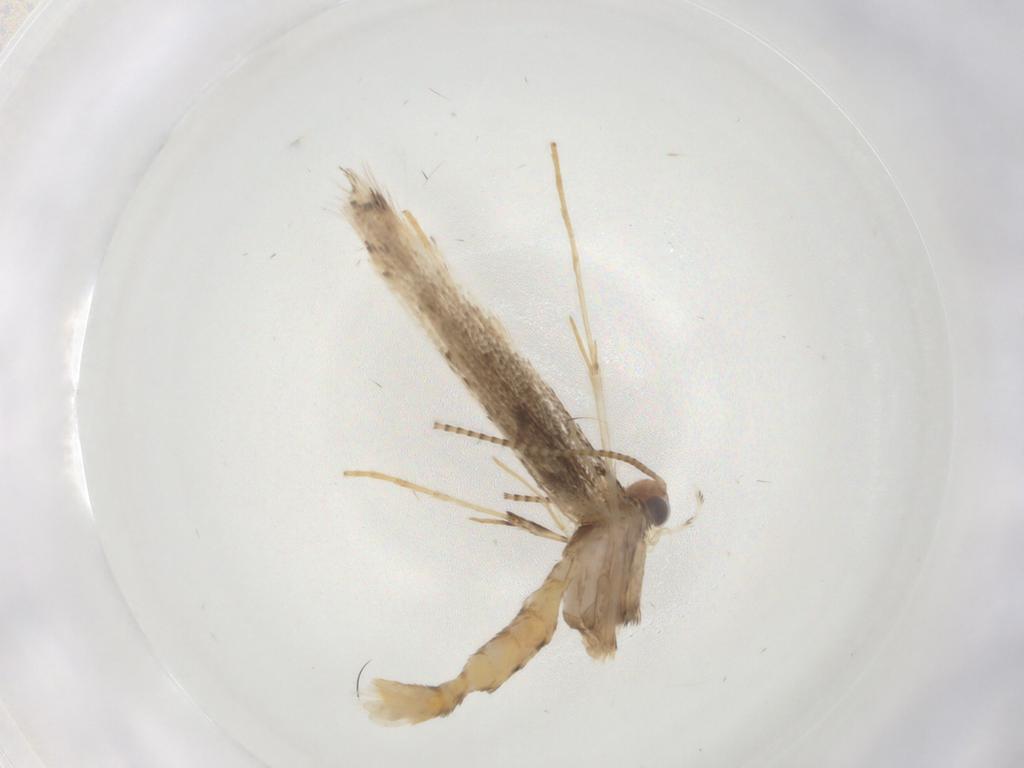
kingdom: Animalia
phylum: Arthropoda
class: Insecta
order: Lepidoptera
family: Gracillariidae
